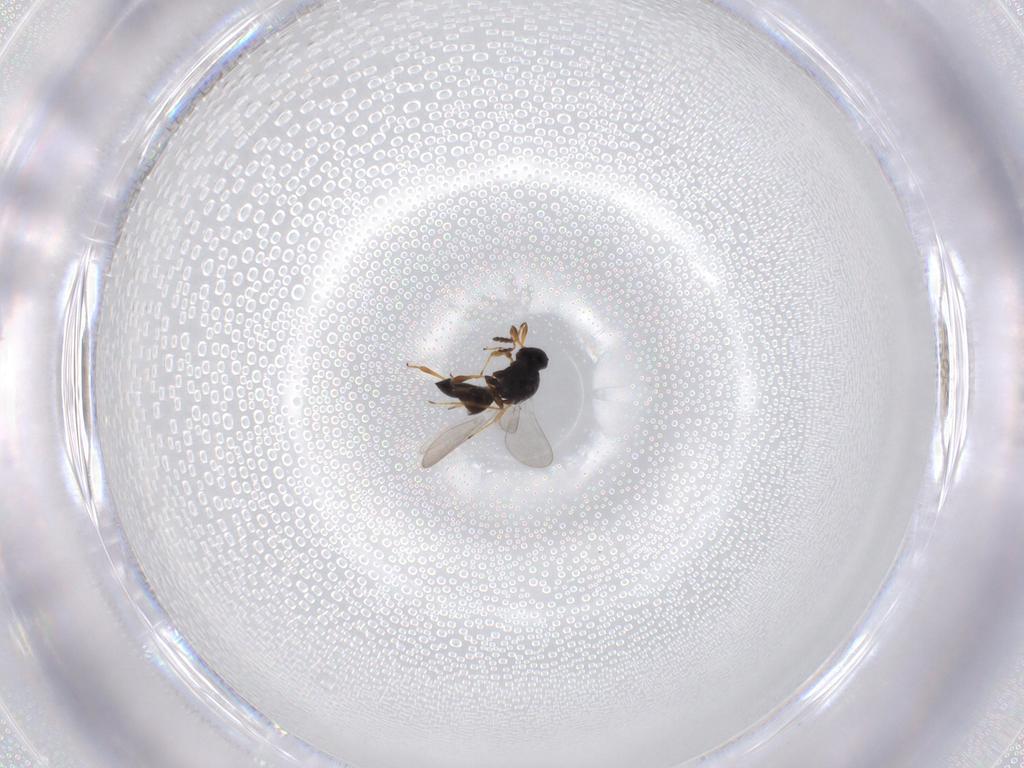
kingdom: Animalia
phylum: Arthropoda
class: Insecta
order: Hymenoptera
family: Platygastridae
